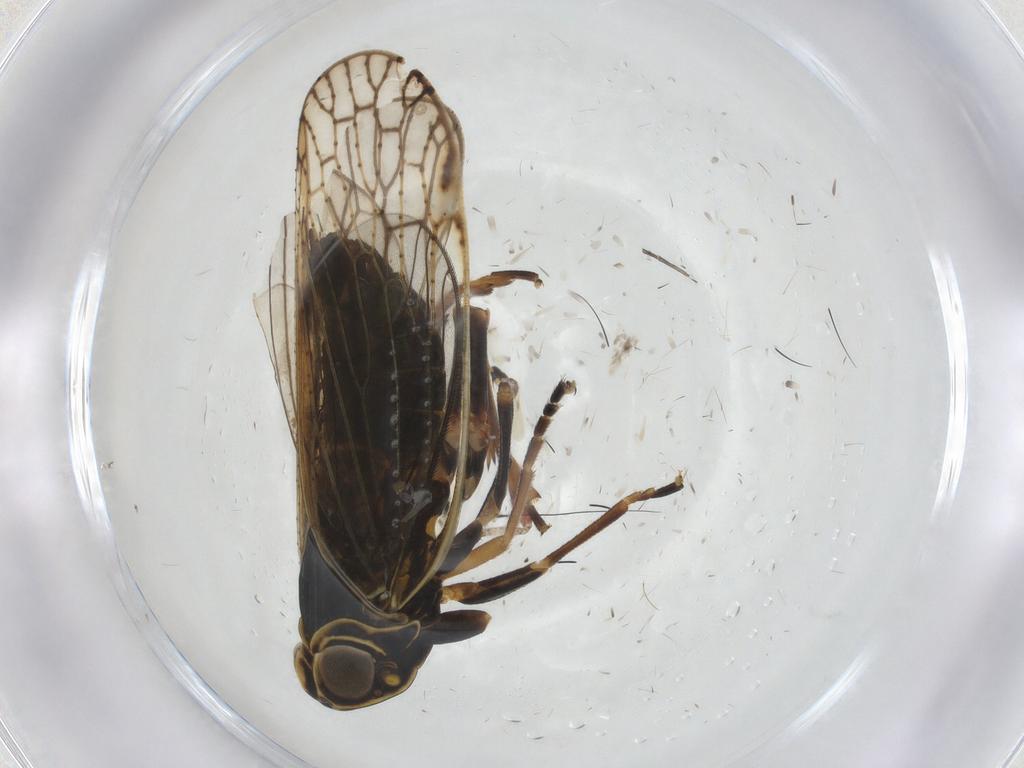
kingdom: Animalia
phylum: Arthropoda
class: Insecta
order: Hemiptera
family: Cixiidae
